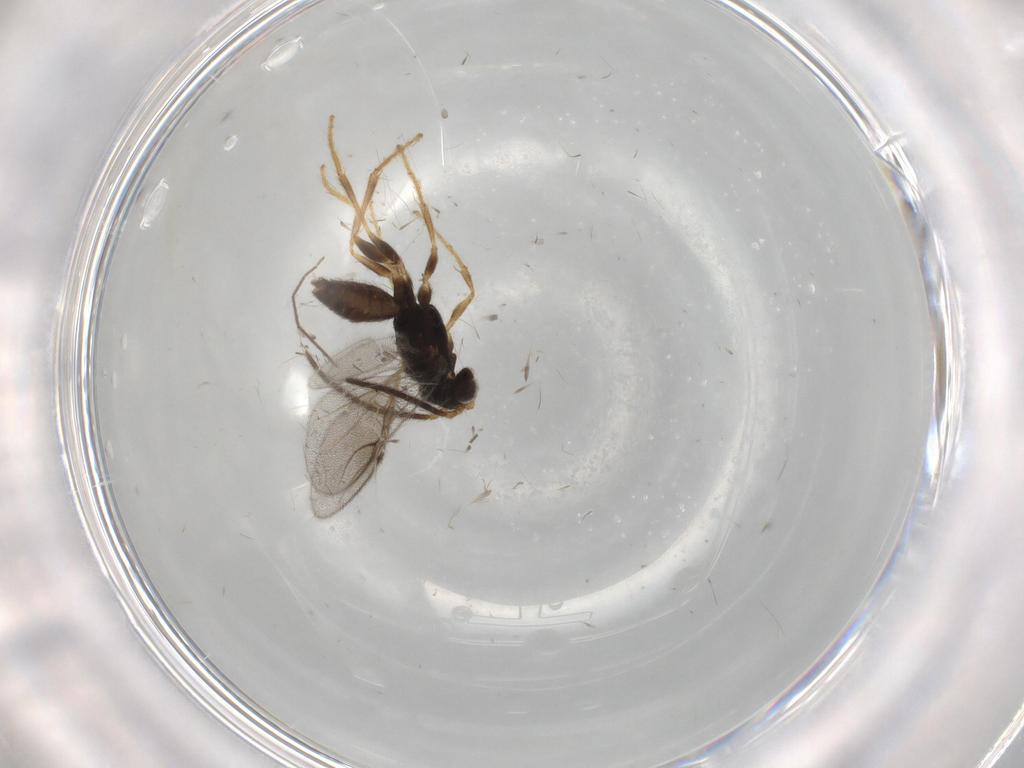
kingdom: Animalia
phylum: Arthropoda
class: Insecta
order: Hymenoptera
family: Dryinidae
